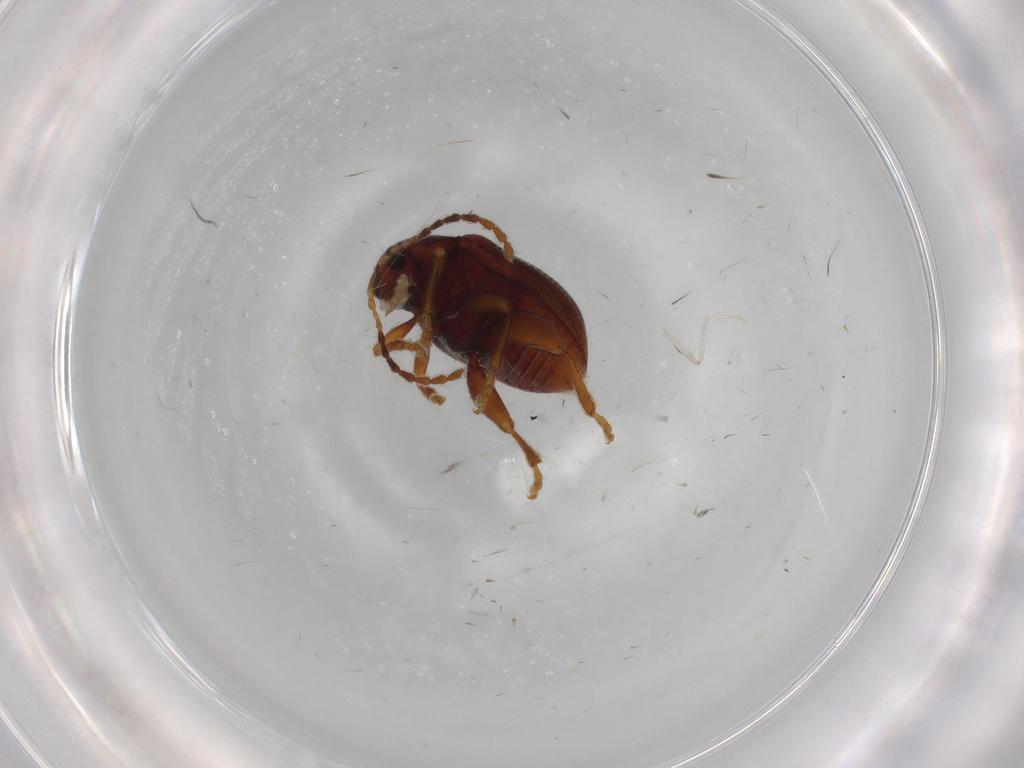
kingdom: Animalia
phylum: Arthropoda
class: Insecta
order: Coleoptera
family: Chrysomelidae
